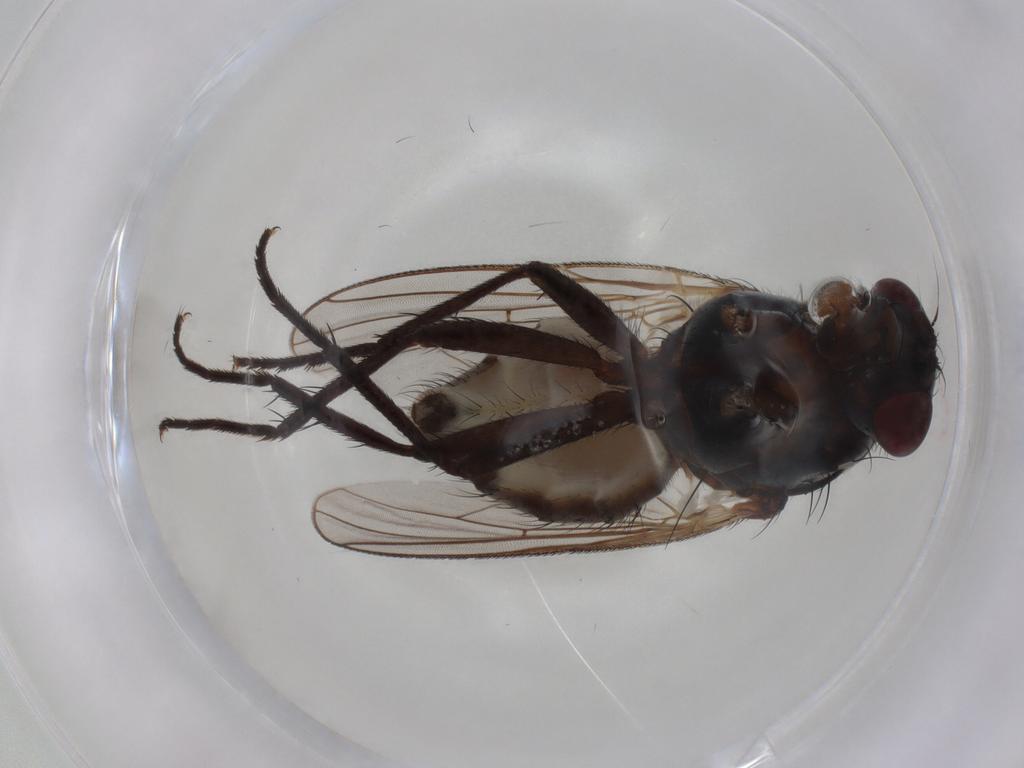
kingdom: Animalia
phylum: Arthropoda
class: Insecta
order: Diptera
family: Anthomyiidae
